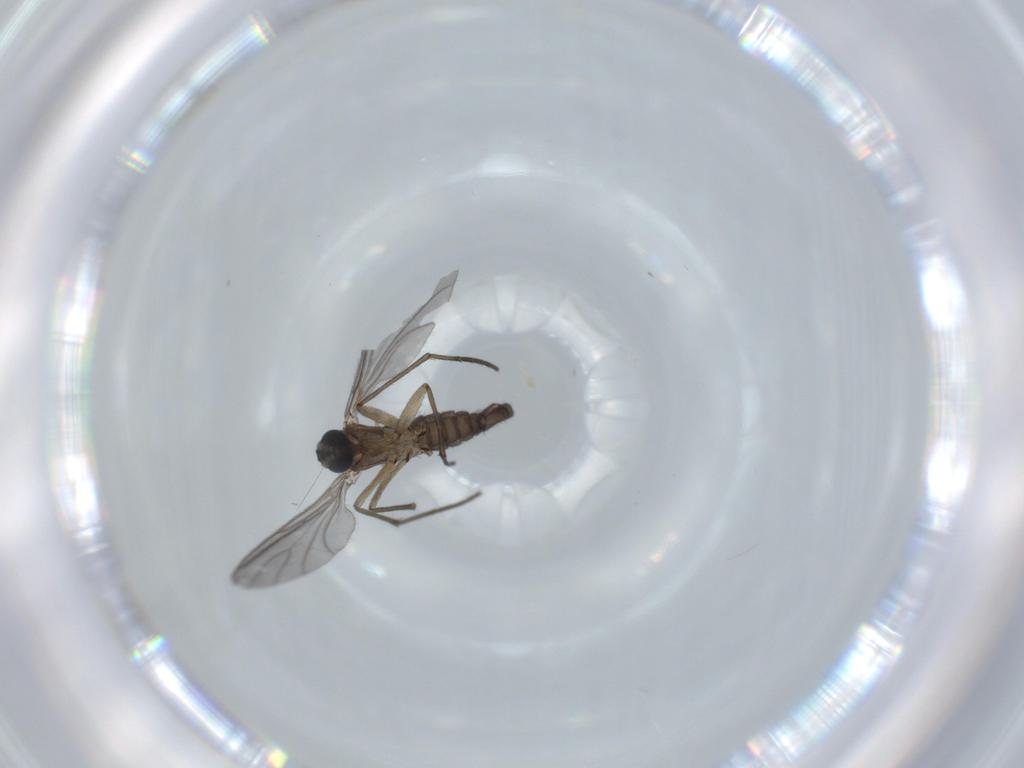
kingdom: Animalia
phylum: Arthropoda
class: Insecta
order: Diptera
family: Sciaridae
